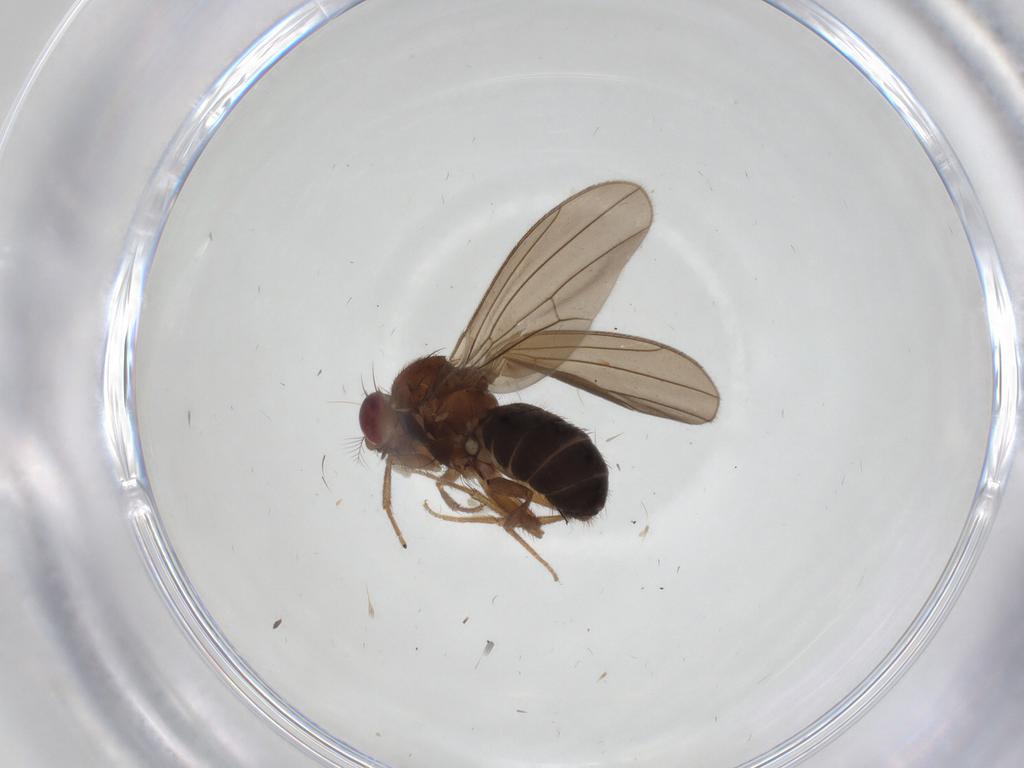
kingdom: Animalia
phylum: Arthropoda
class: Insecta
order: Diptera
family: Drosophilidae
